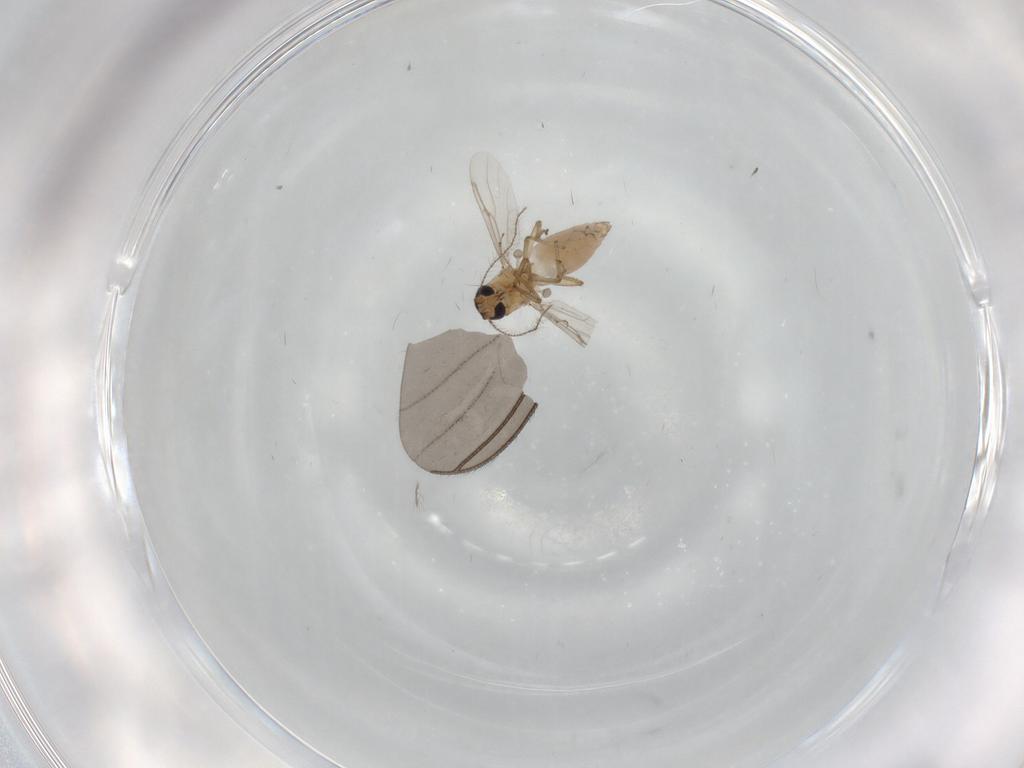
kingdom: Animalia
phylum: Arthropoda
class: Insecta
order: Diptera
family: Ceratopogonidae
